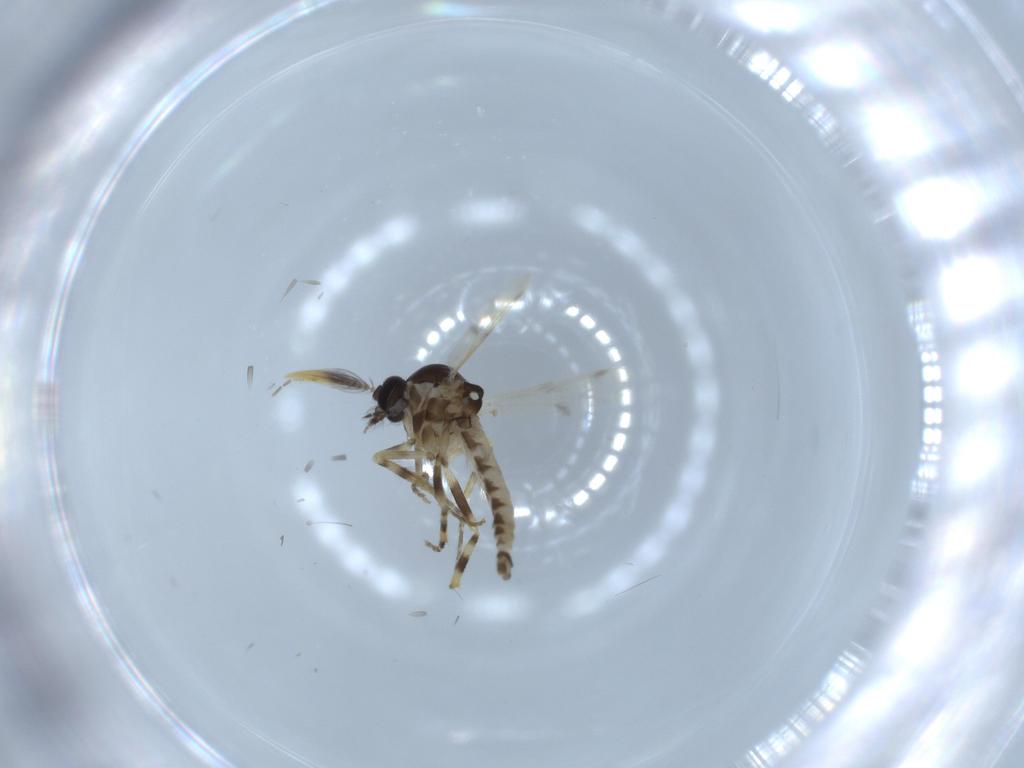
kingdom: Animalia
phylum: Arthropoda
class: Insecta
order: Diptera
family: Ceratopogonidae
